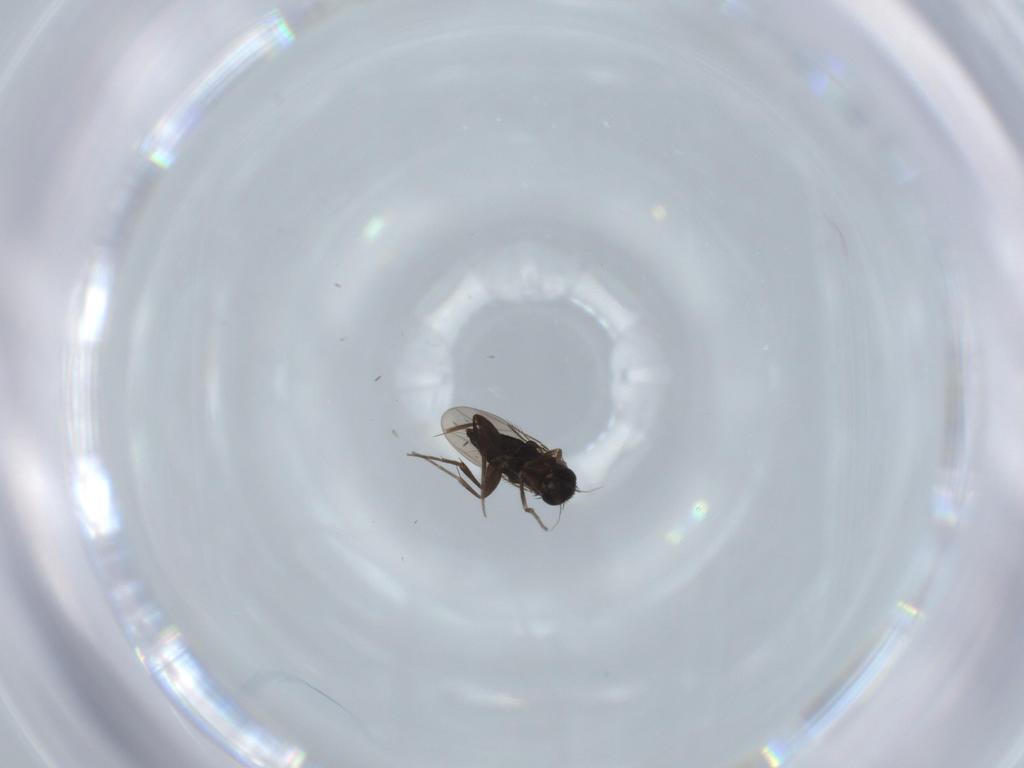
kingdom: Animalia
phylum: Arthropoda
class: Insecta
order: Diptera
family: Phoridae
